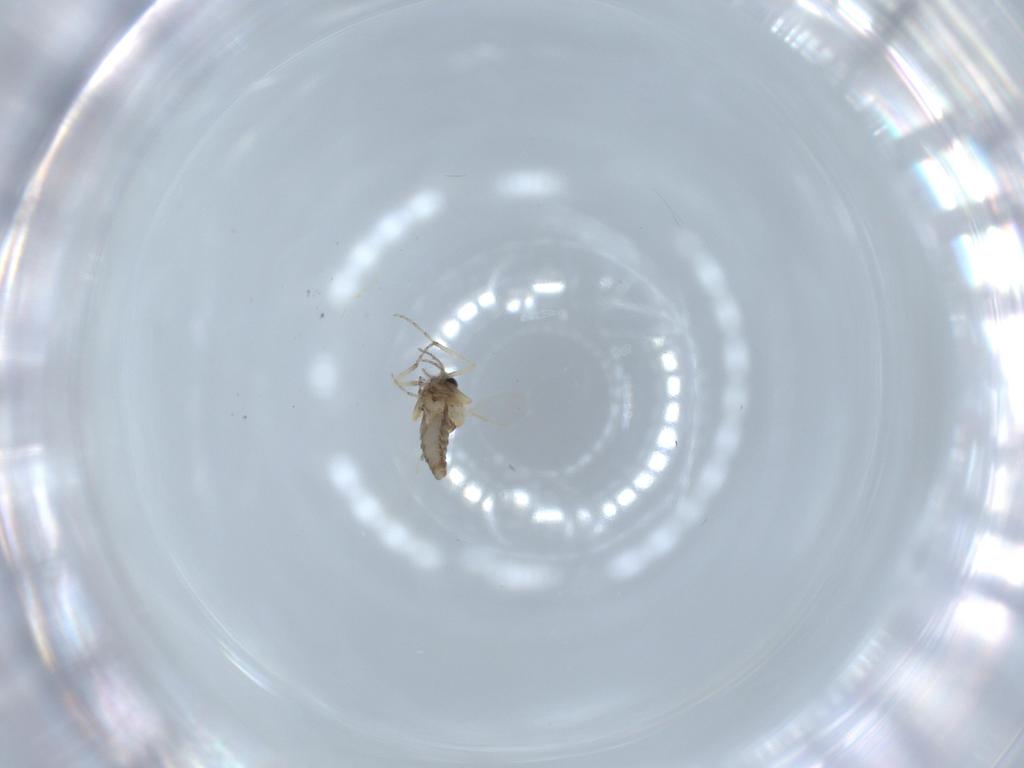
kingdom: Animalia
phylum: Arthropoda
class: Insecta
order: Diptera
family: Ceratopogonidae
